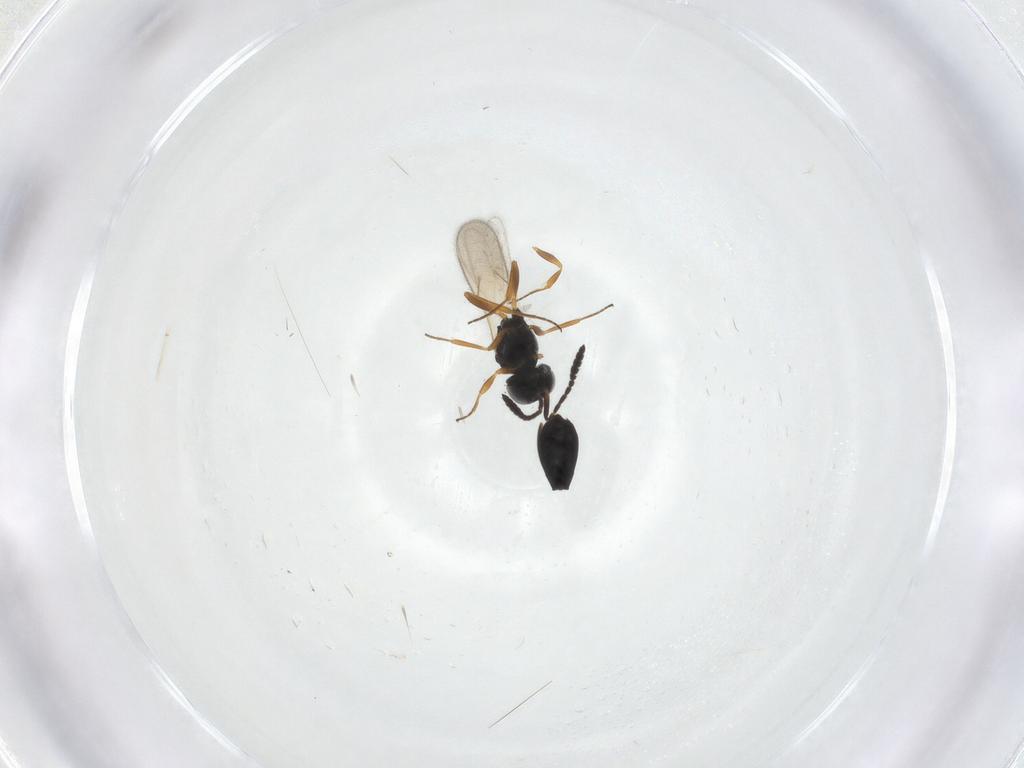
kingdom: Animalia
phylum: Arthropoda
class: Insecta
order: Hymenoptera
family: Scelionidae
